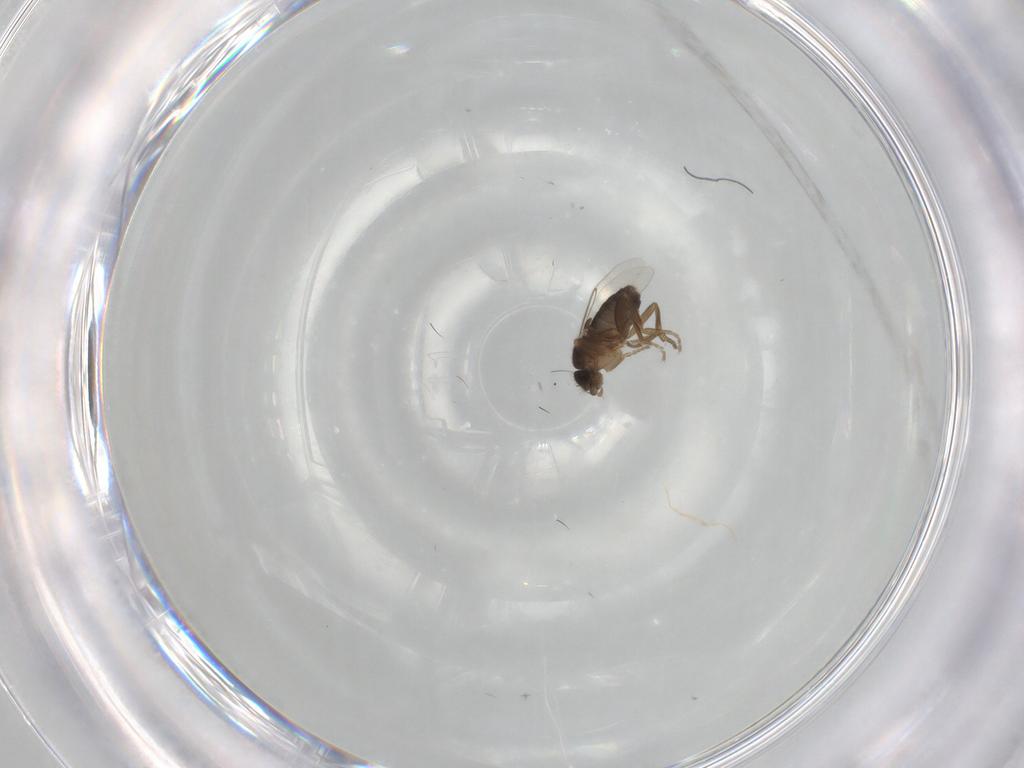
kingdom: Animalia
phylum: Arthropoda
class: Insecta
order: Diptera
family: Phoridae
